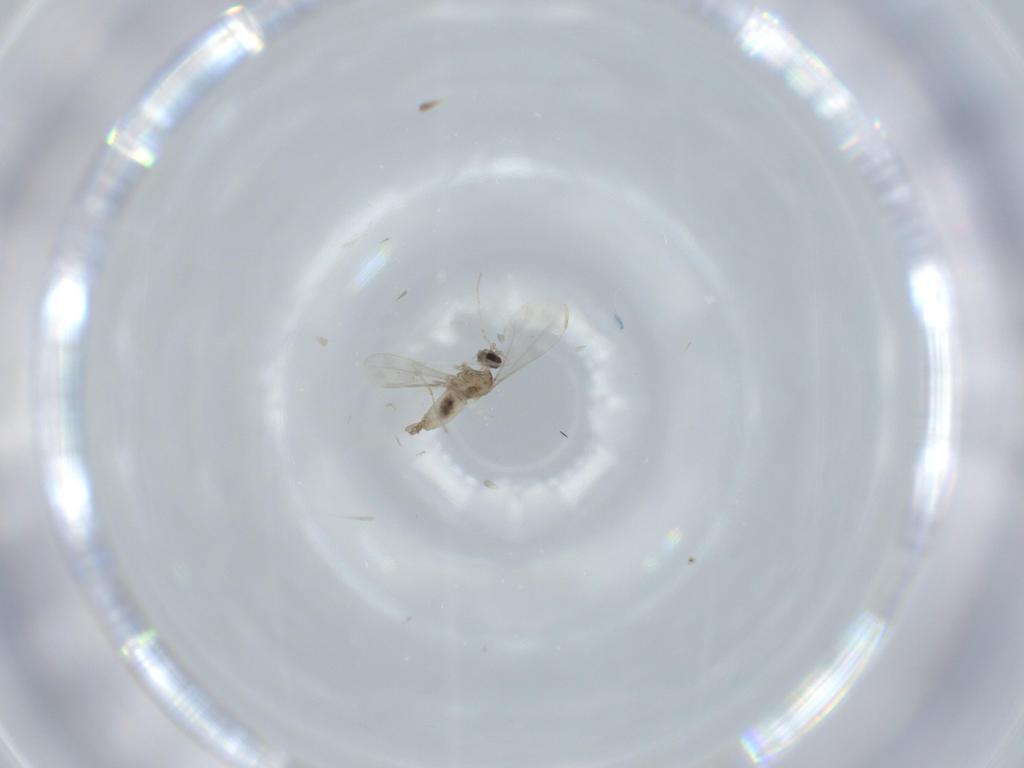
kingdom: Animalia
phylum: Arthropoda
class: Insecta
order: Diptera
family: Cecidomyiidae
